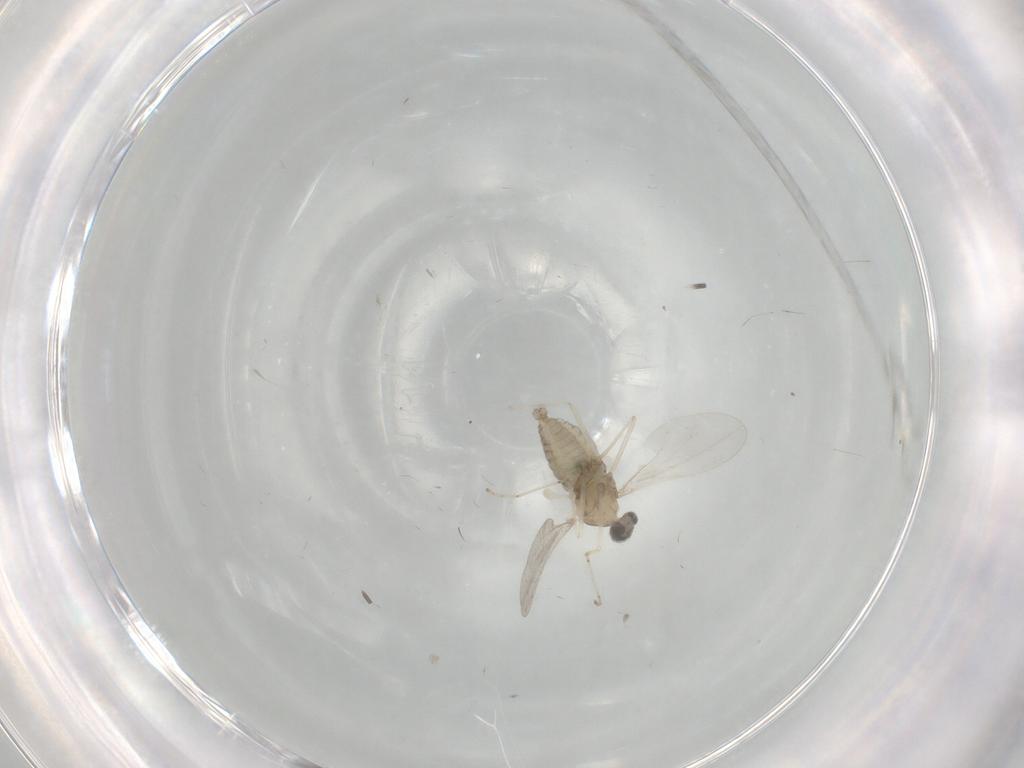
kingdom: Animalia
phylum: Arthropoda
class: Insecta
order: Diptera
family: Cecidomyiidae
